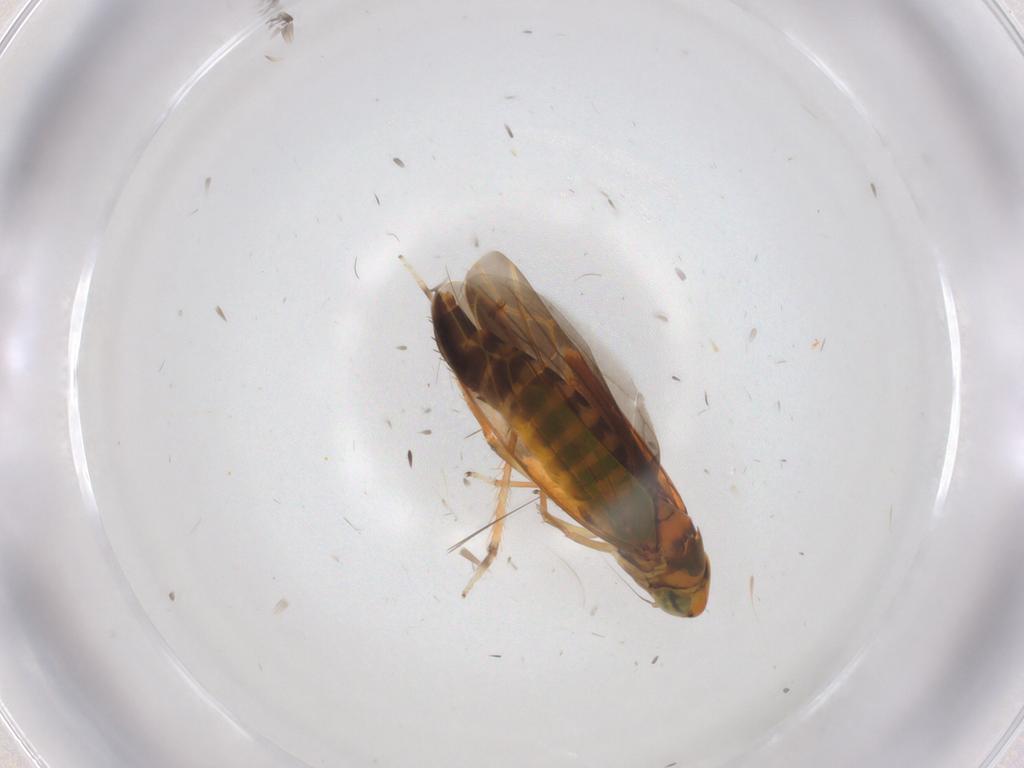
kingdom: Animalia
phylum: Arthropoda
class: Insecta
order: Hemiptera
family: Cicadellidae
